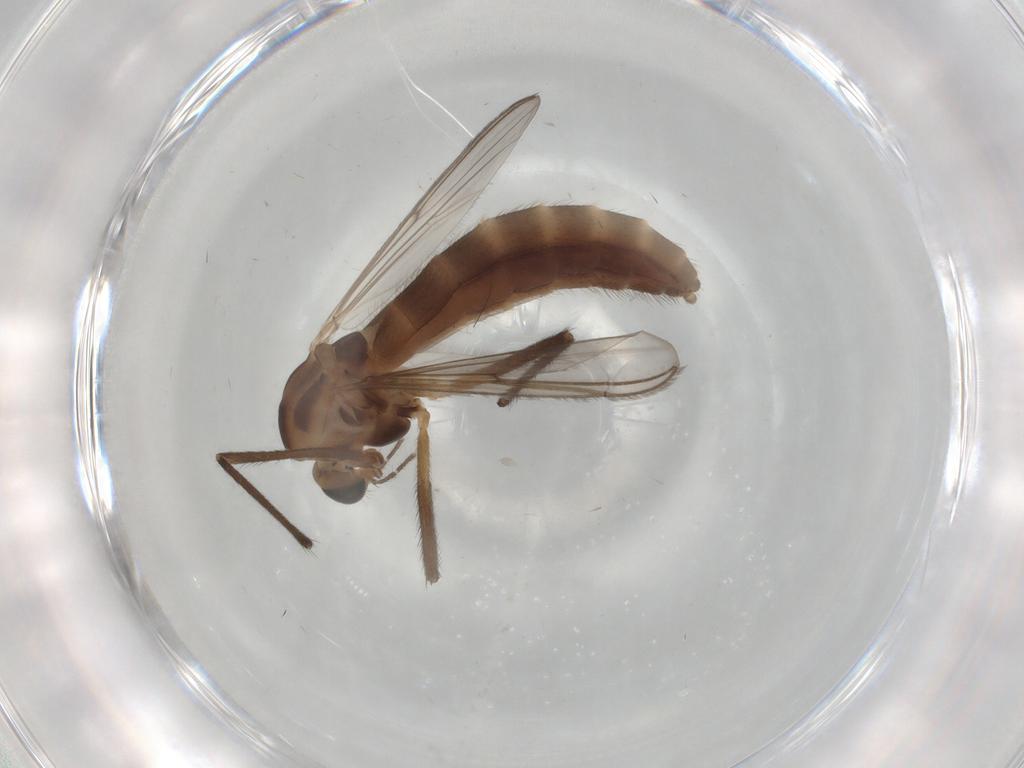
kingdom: Animalia
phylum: Arthropoda
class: Insecta
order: Diptera
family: Chironomidae
